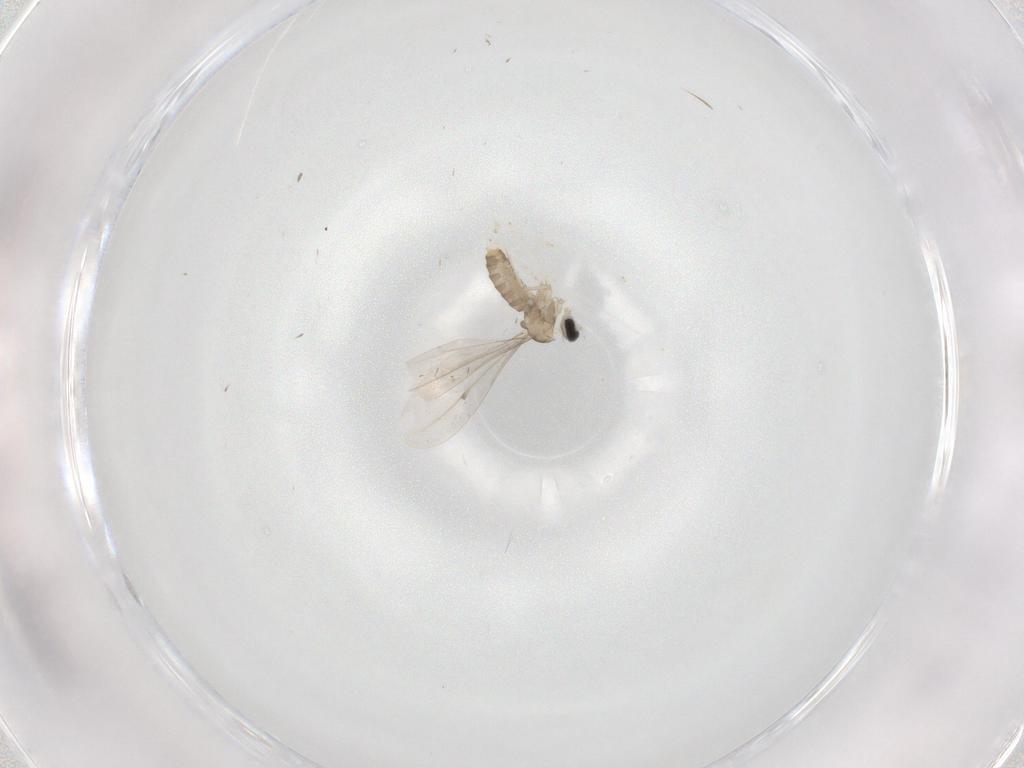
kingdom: Animalia
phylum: Arthropoda
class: Insecta
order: Diptera
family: Cecidomyiidae
